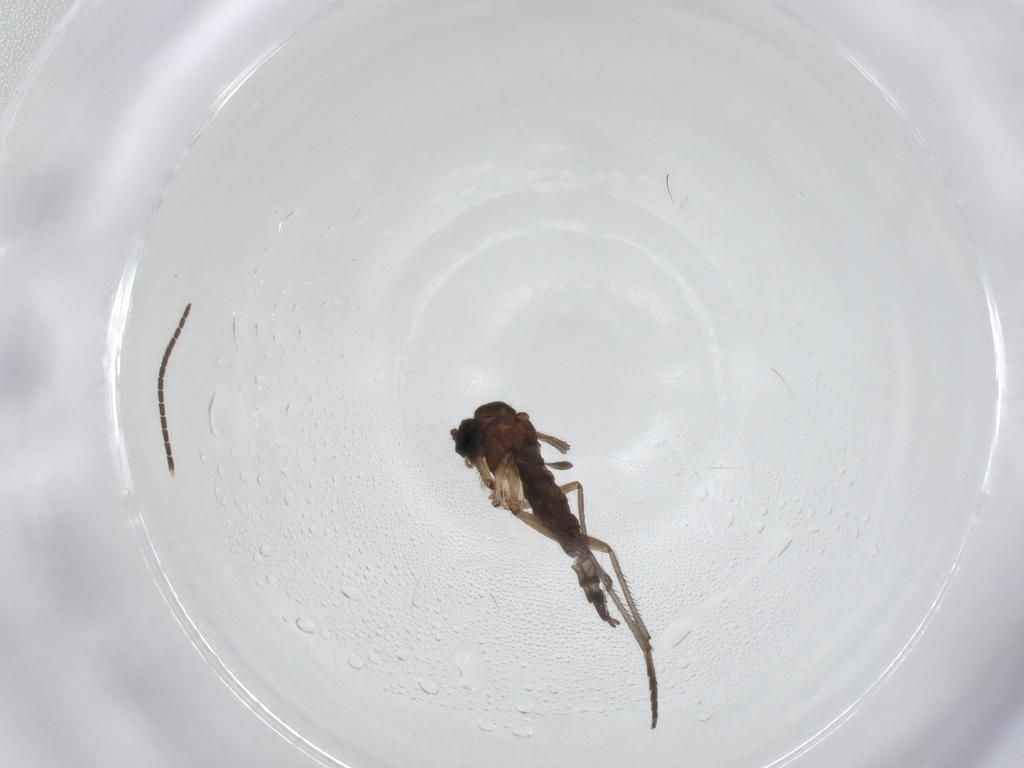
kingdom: Animalia
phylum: Arthropoda
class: Insecta
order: Diptera
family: Mycetophilidae
